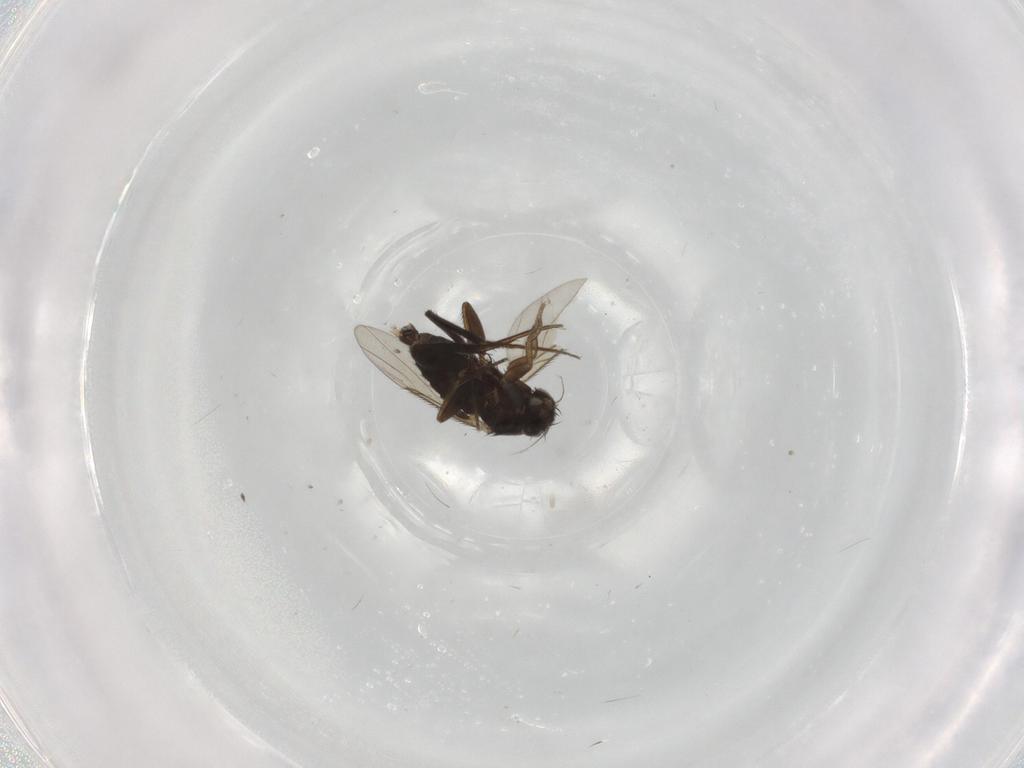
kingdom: Animalia
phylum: Arthropoda
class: Insecta
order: Diptera
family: Phoridae
